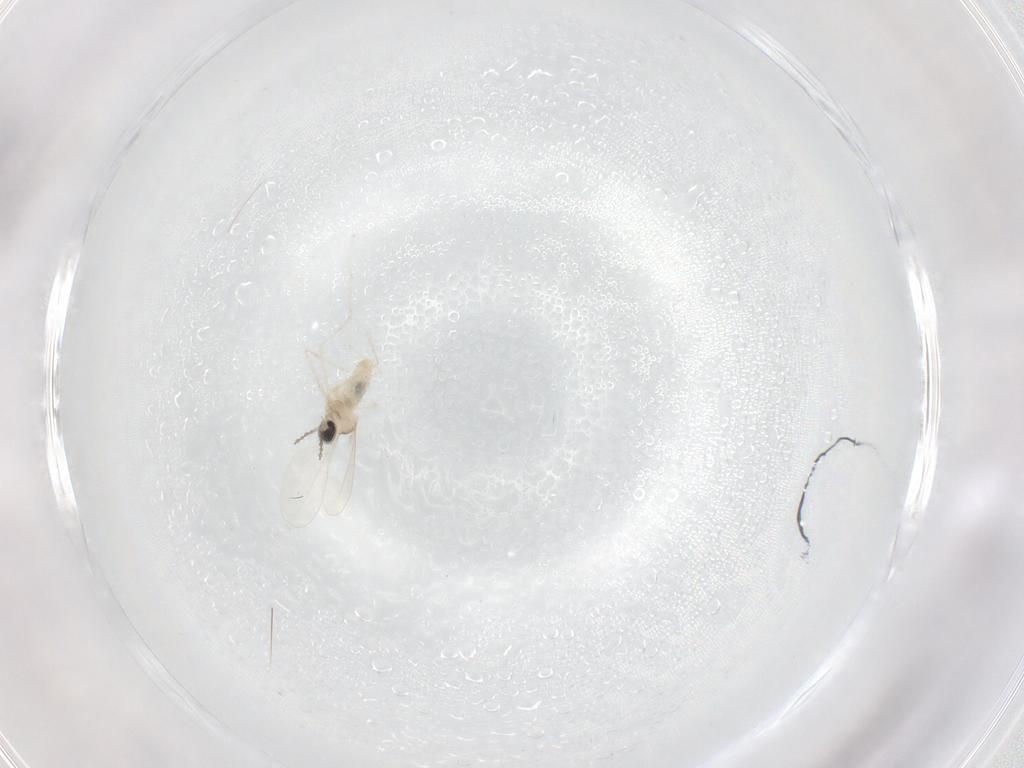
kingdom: Animalia
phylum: Arthropoda
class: Insecta
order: Diptera
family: Cecidomyiidae
